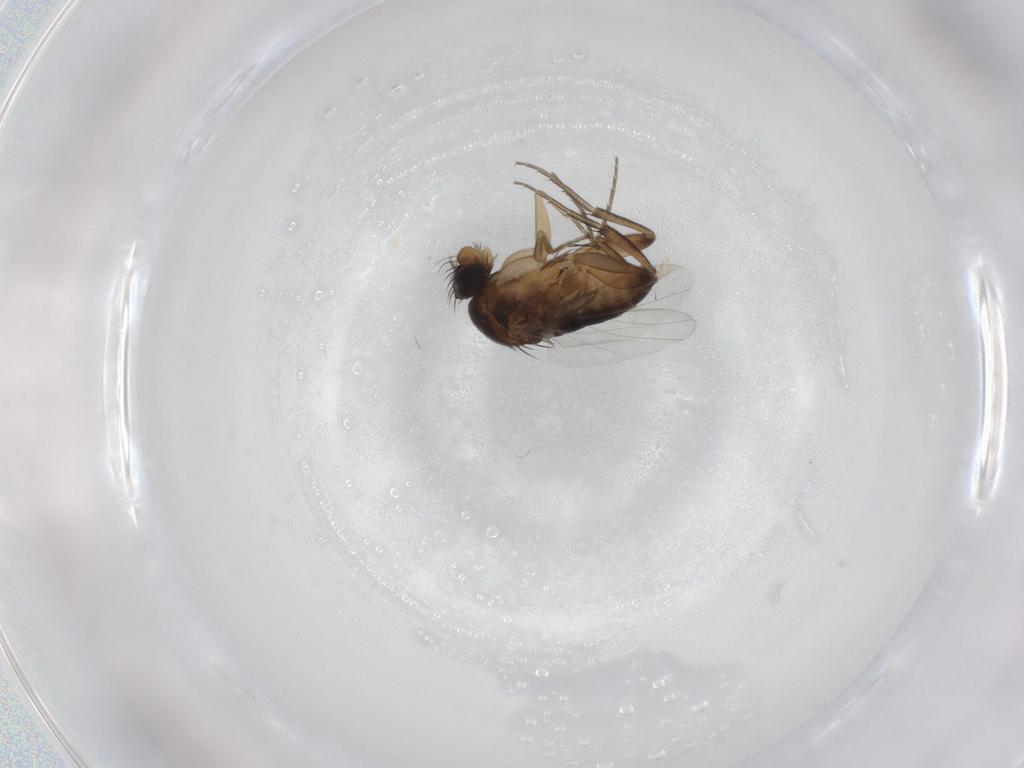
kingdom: Animalia
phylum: Arthropoda
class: Insecta
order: Diptera
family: Phoridae
